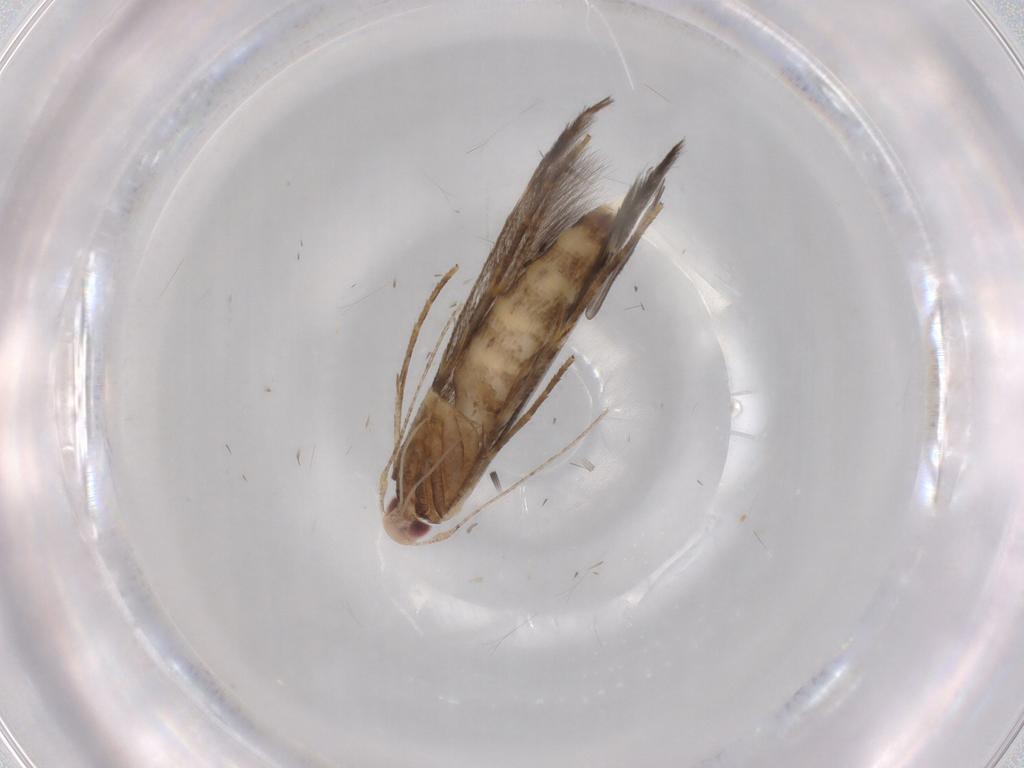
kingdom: Animalia
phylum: Arthropoda
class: Insecta
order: Lepidoptera
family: Cosmopterigidae
